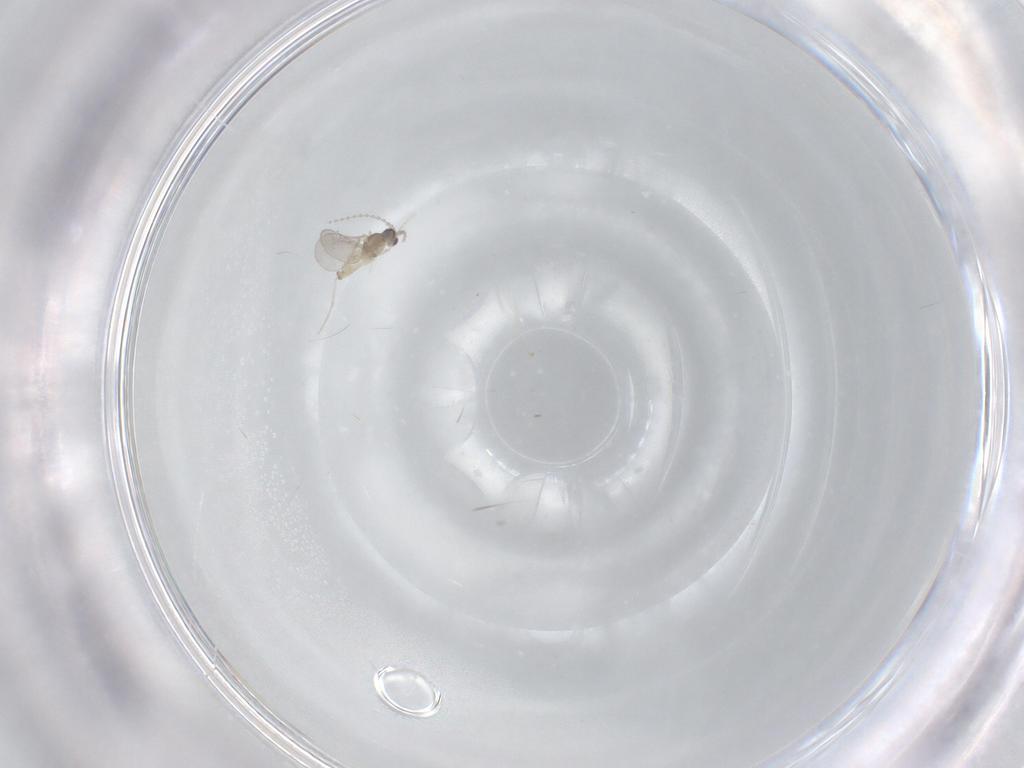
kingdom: Animalia
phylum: Arthropoda
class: Insecta
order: Diptera
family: Cecidomyiidae
